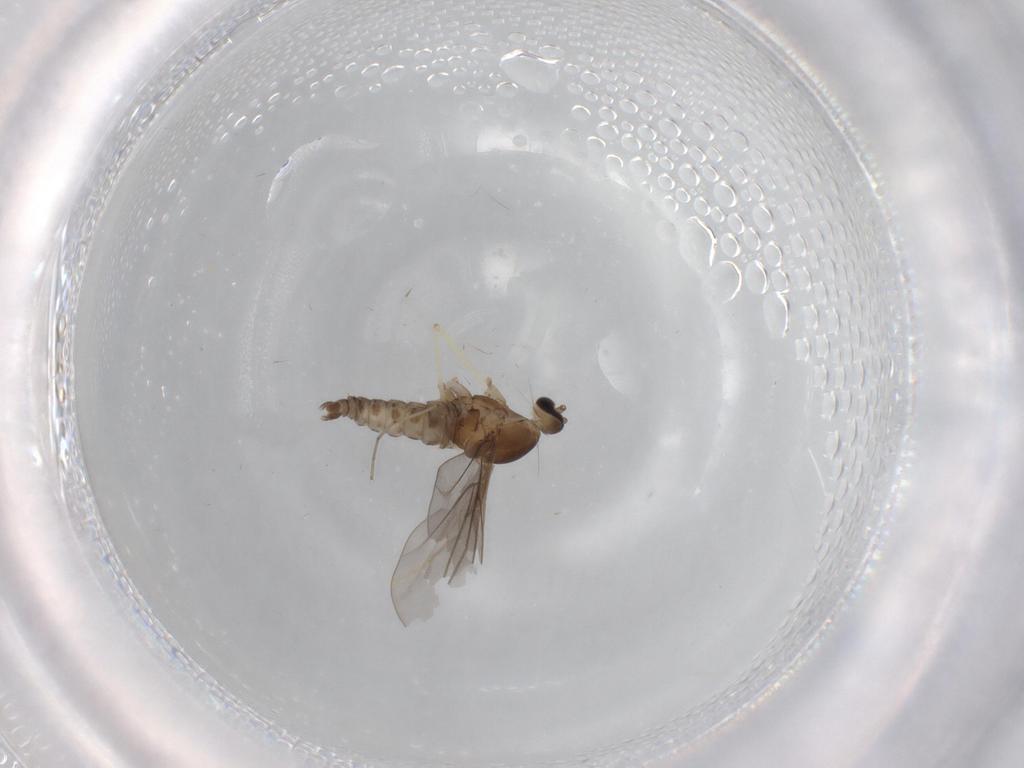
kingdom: Animalia
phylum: Arthropoda
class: Insecta
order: Diptera
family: Cecidomyiidae
